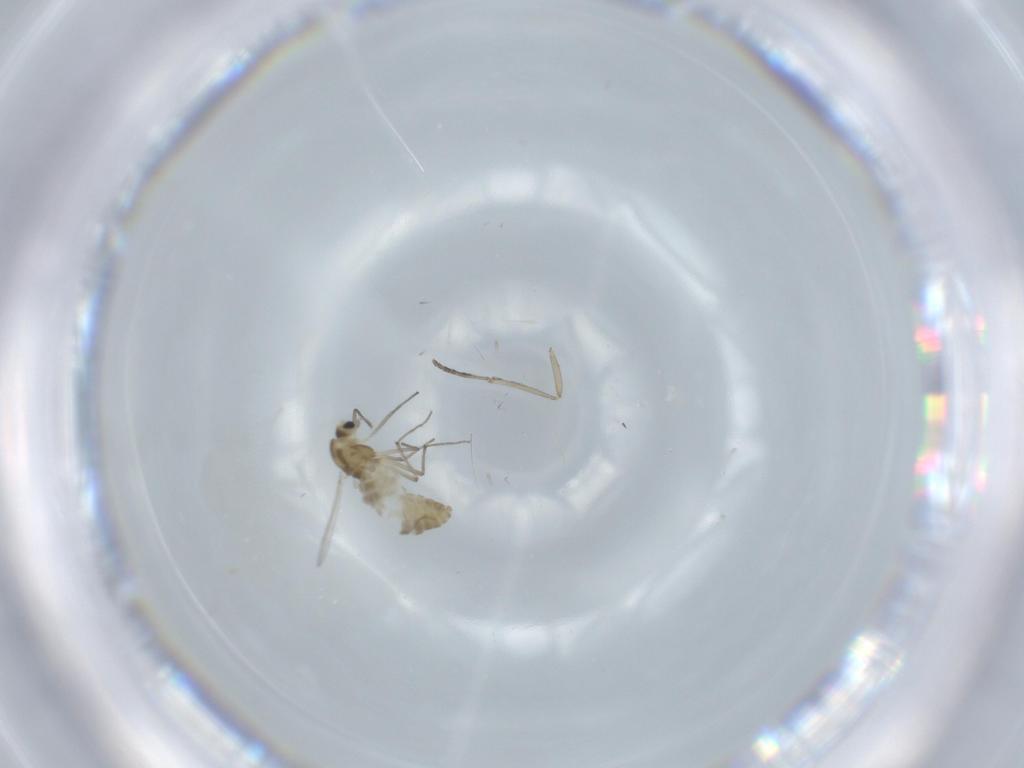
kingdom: Animalia
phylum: Arthropoda
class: Insecta
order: Diptera
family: Chironomidae
